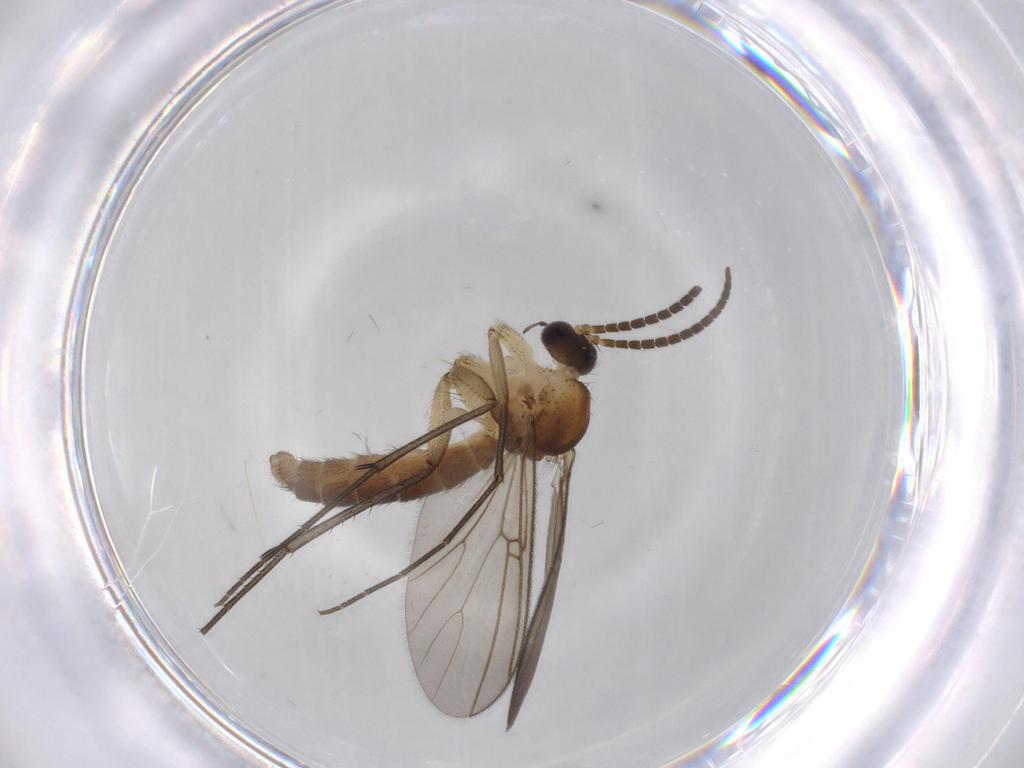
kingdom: Animalia
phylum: Arthropoda
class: Insecta
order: Diptera
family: Mycetophilidae
